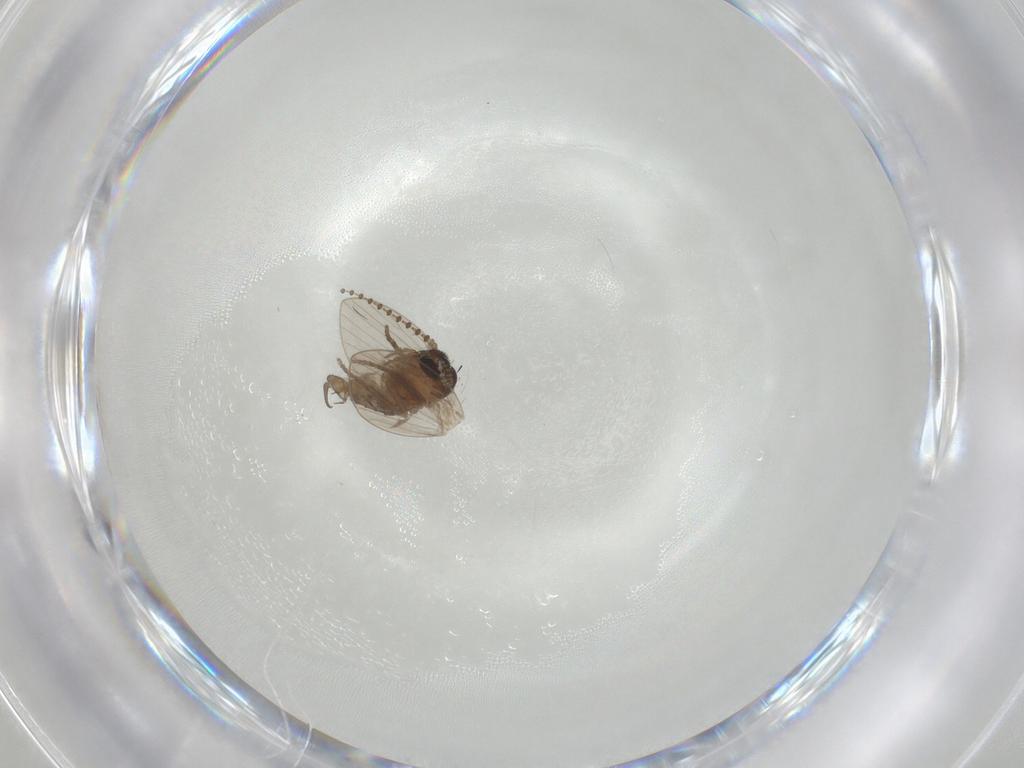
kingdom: Animalia
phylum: Arthropoda
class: Insecta
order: Diptera
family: Psychodidae
